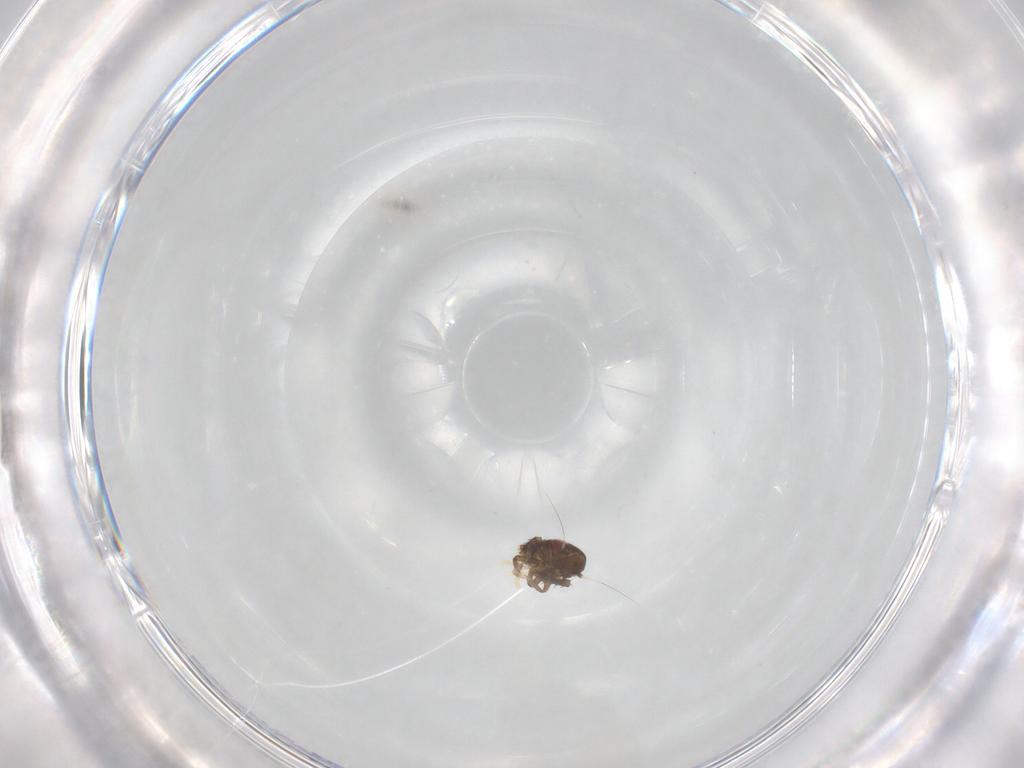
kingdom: Animalia
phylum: Arthropoda
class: Insecta
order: Hemiptera
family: Cicadellidae
